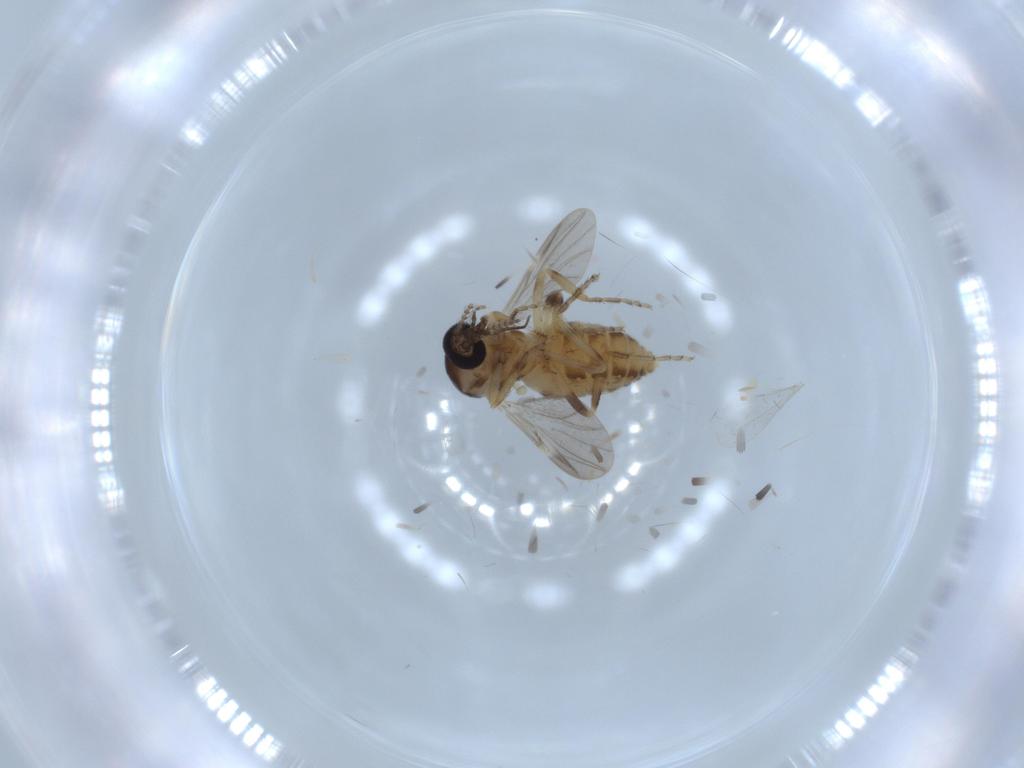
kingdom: Animalia
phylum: Arthropoda
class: Insecta
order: Diptera
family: Ceratopogonidae
